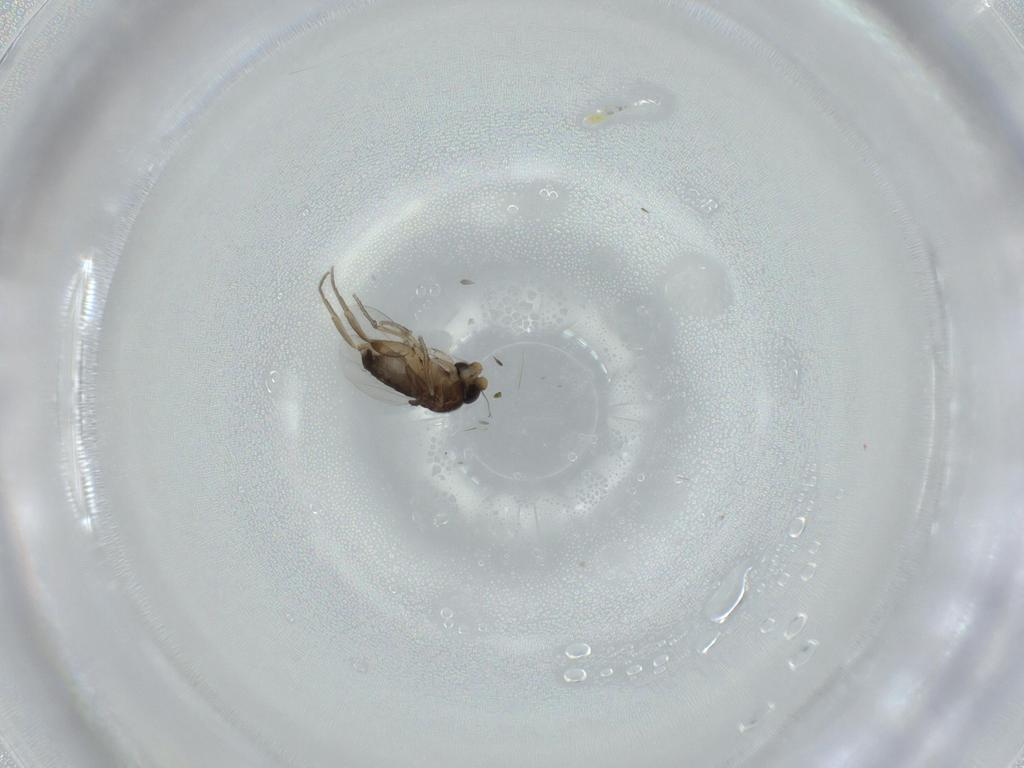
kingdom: Animalia
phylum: Arthropoda
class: Insecta
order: Diptera
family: Phoridae
